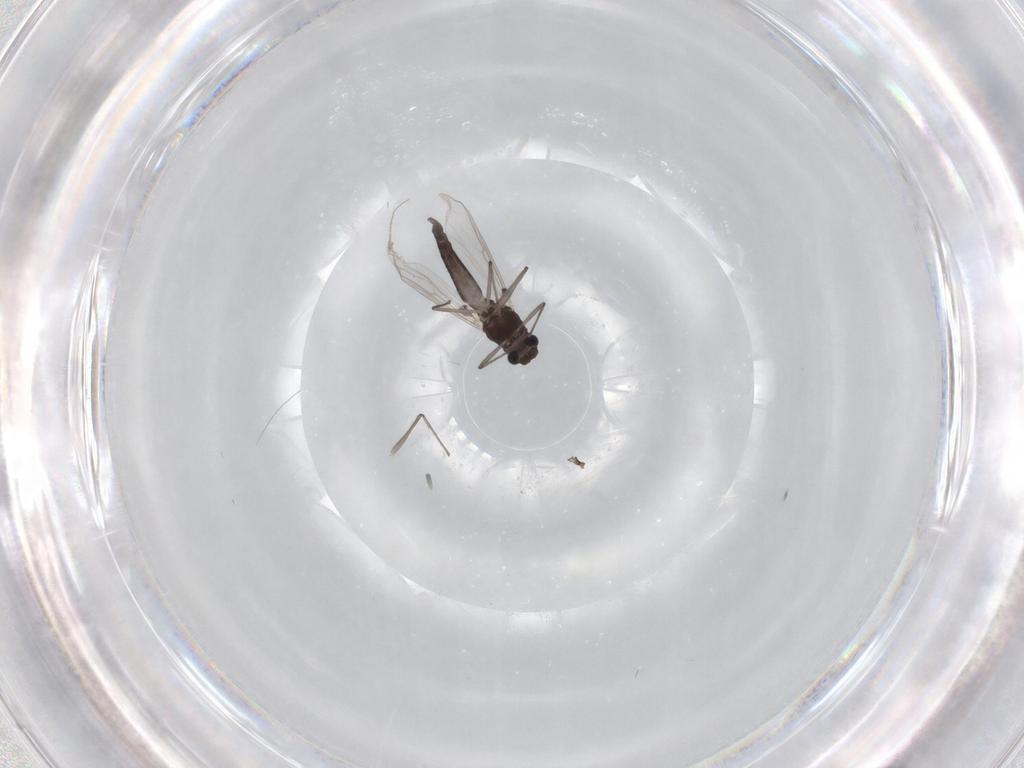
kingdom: Animalia
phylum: Arthropoda
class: Insecta
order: Diptera
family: Chironomidae
